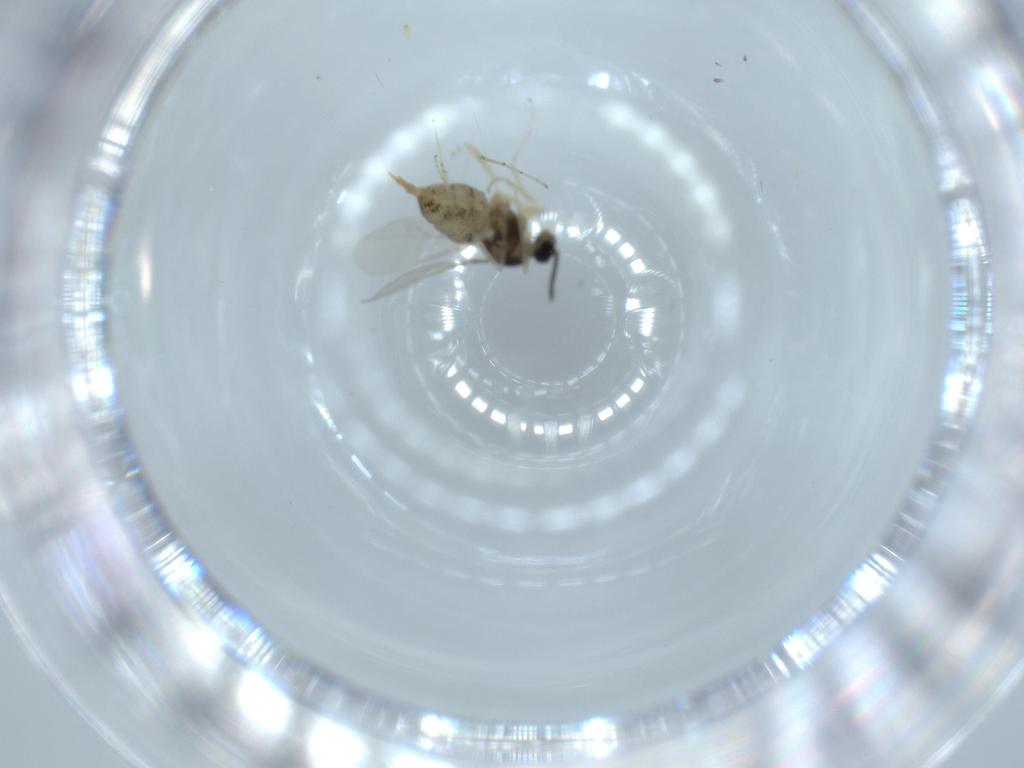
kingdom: Animalia
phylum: Arthropoda
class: Insecta
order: Diptera
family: Cecidomyiidae
